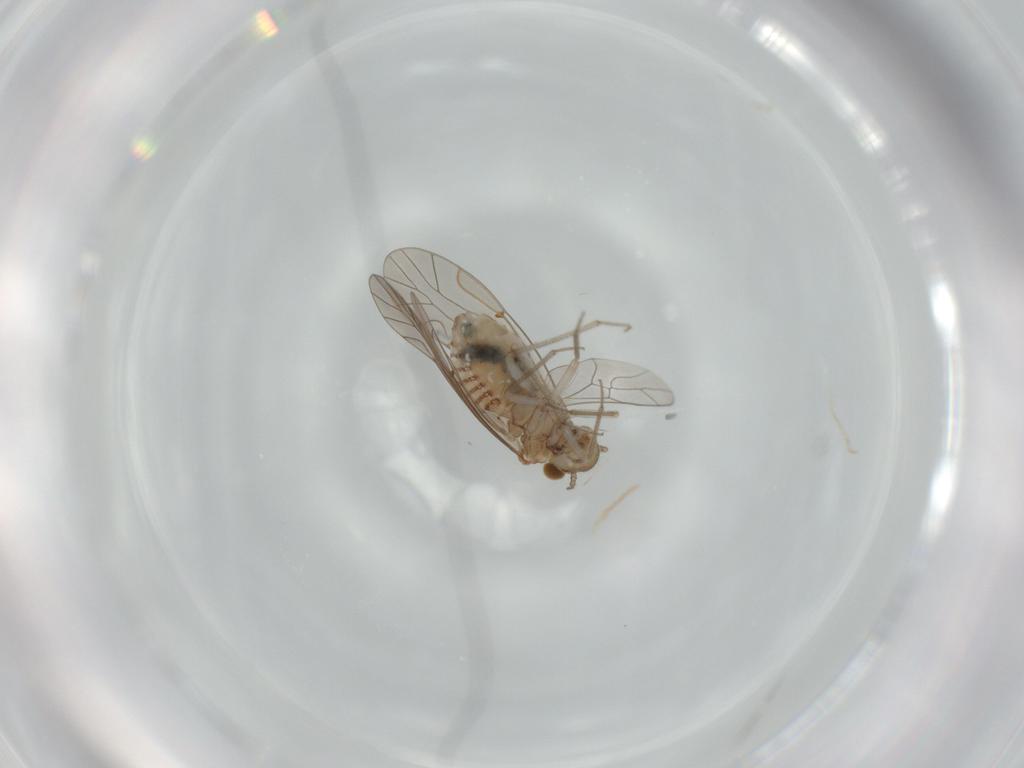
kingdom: Animalia
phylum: Arthropoda
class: Insecta
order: Psocodea
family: Lachesillidae
